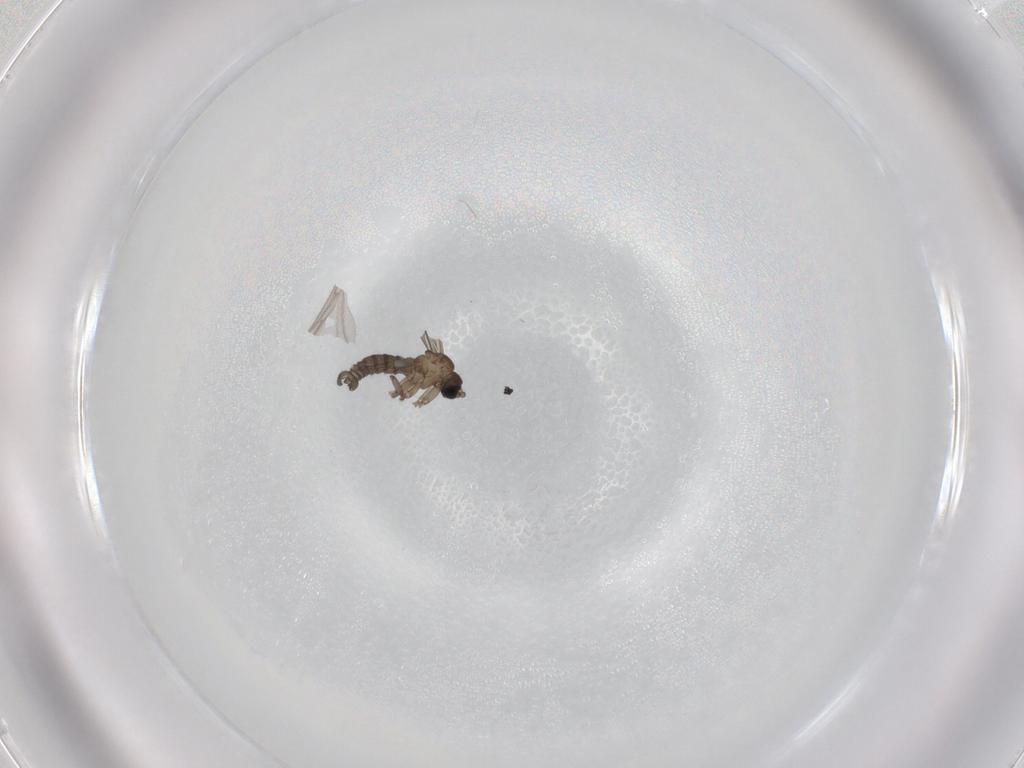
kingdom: Animalia
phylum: Arthropoda
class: Insecta
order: Diptera
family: Sciaridae
